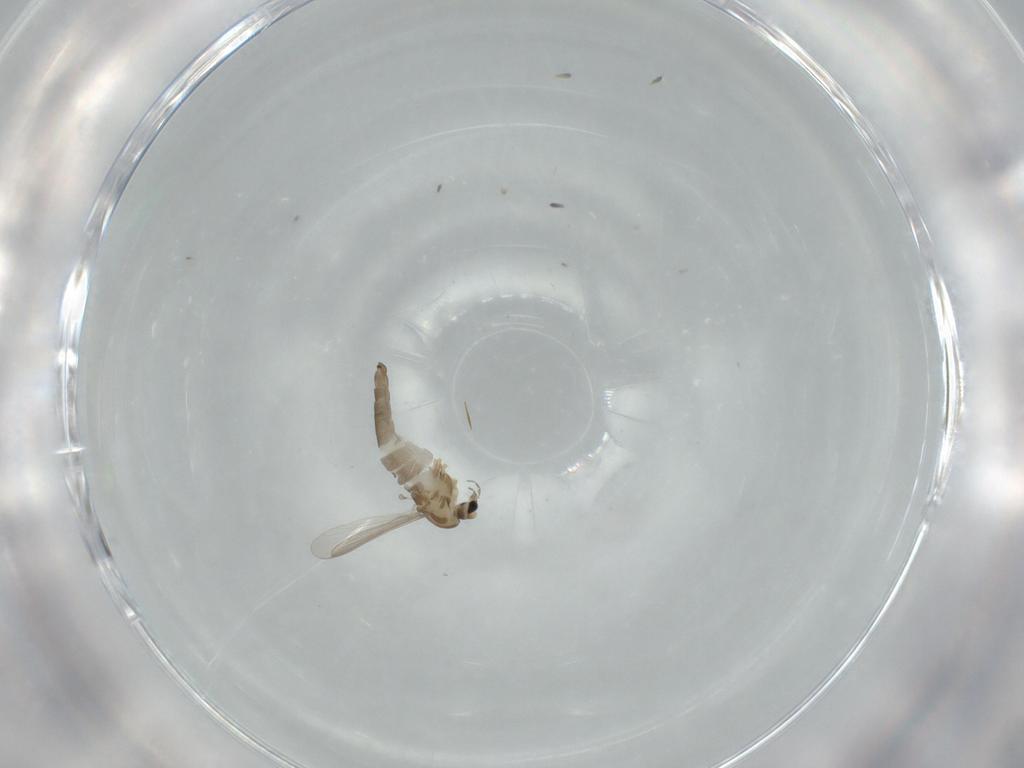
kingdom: Animalia
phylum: Arthropoda
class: Insecta
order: Diptera
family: Chironomidae
